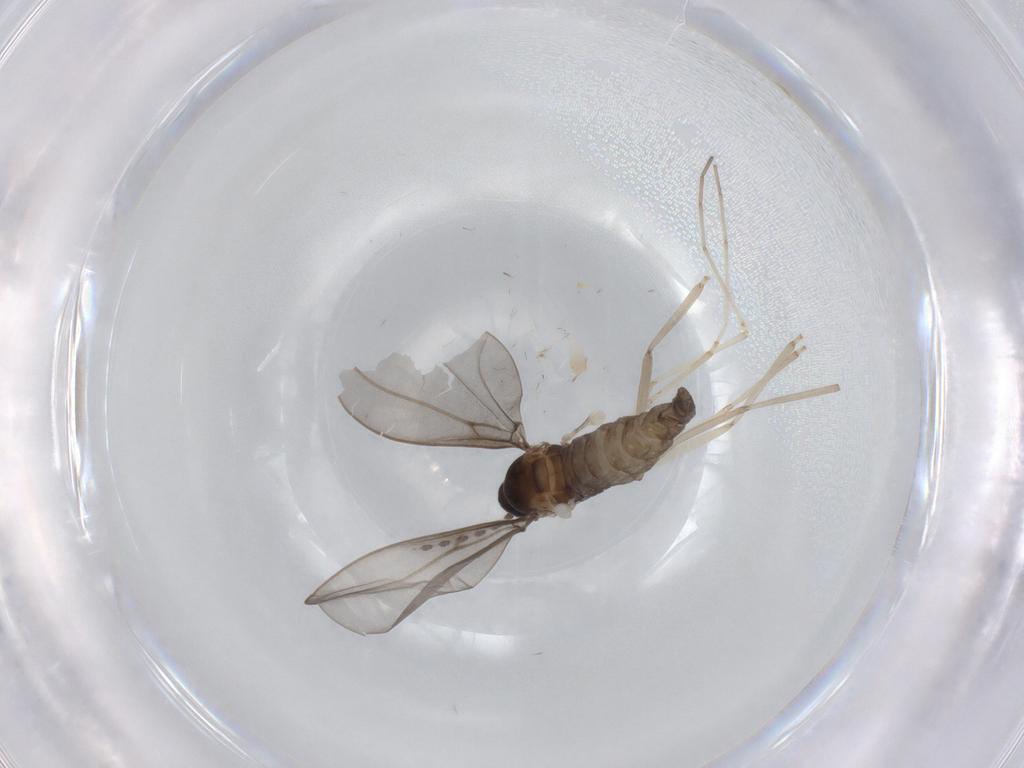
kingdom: Animalia
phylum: Arthropoda
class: Insecta
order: Diptera
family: Cecidomyiidae
